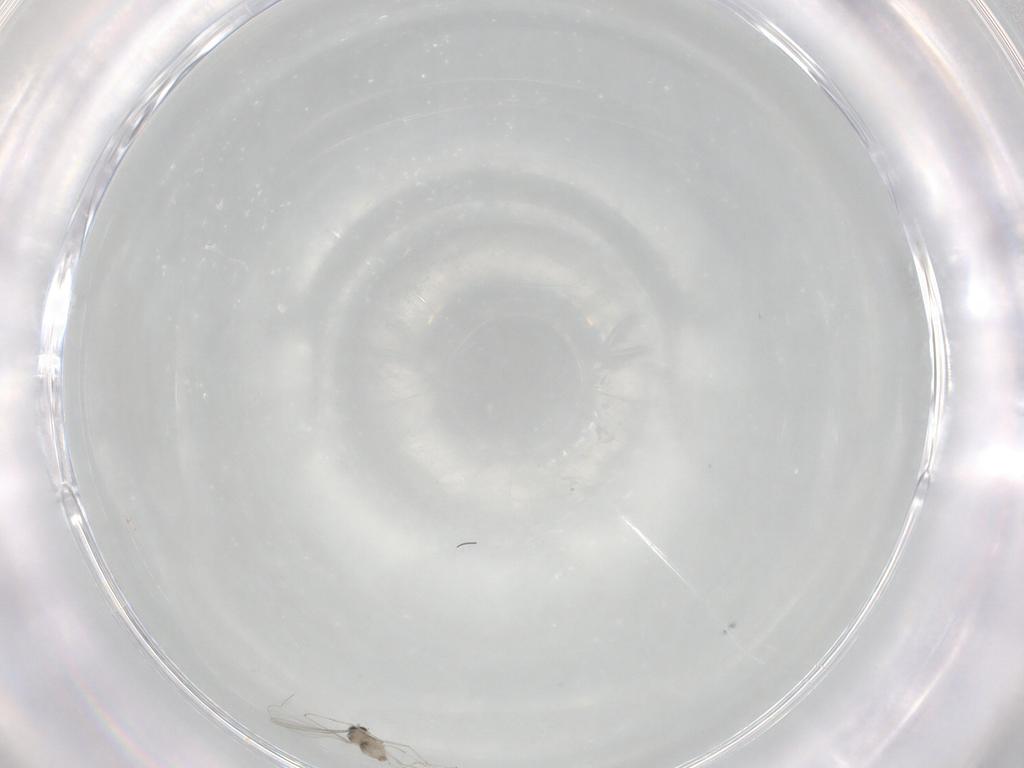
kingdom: Animalia
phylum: Arthropoda
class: Insecta
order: Diptera
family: Cecidomyiidae
